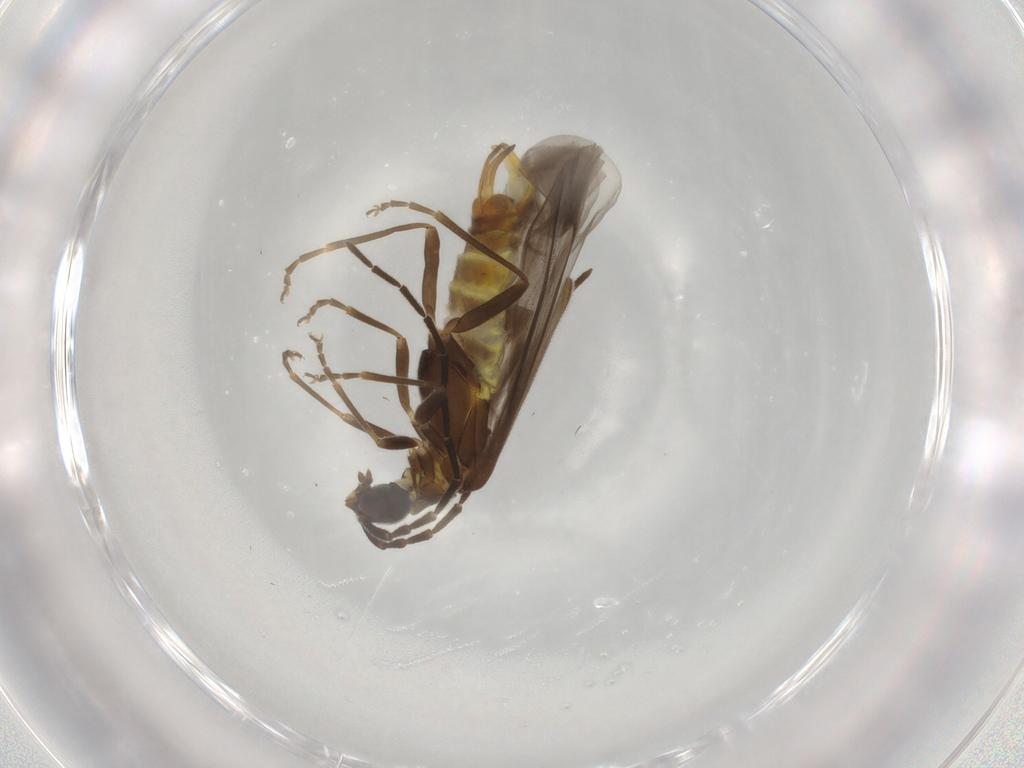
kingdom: Animalia
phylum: Arthropoda
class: Insecta
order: Coleoptera
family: Cantharidae
